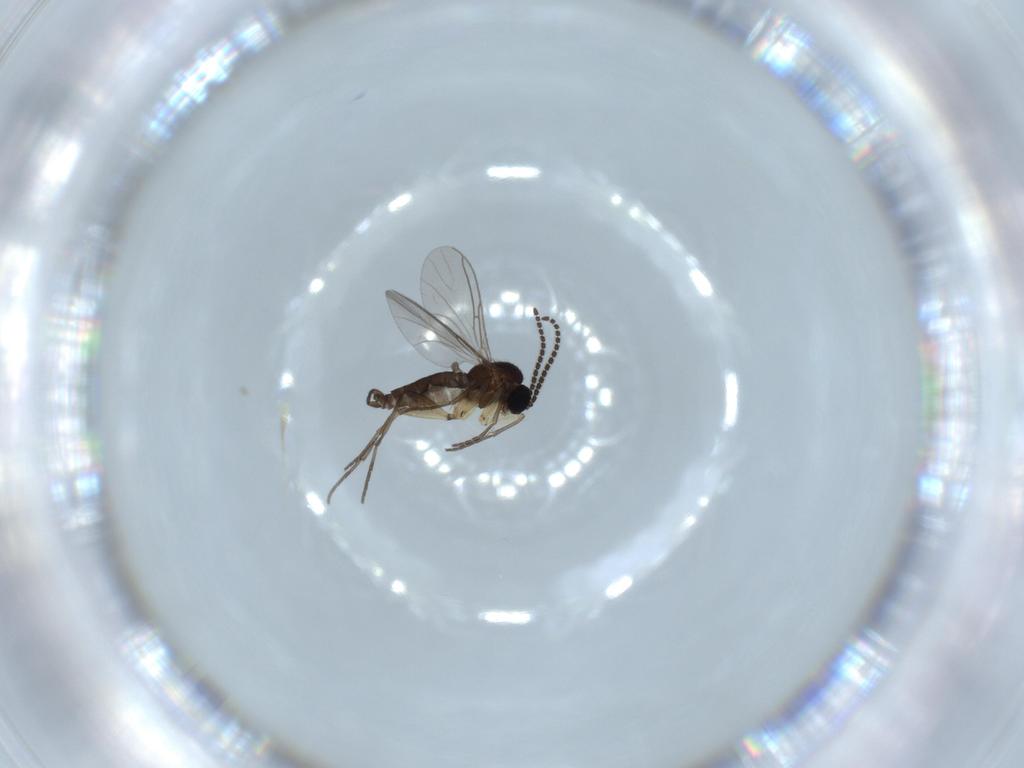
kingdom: Animalia
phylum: Arthropoda
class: Insecta
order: Diptera
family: Sciaridae
